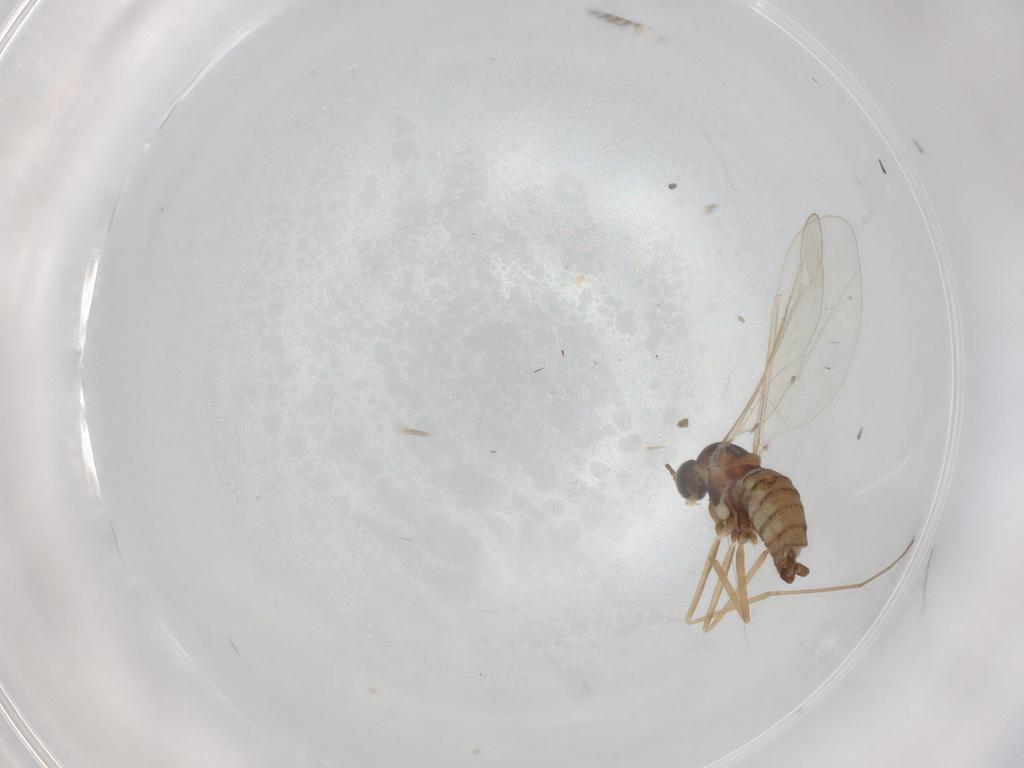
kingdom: Animalia
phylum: Arthropoda
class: Insecta
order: Diptera
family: Cecidomyiidae
